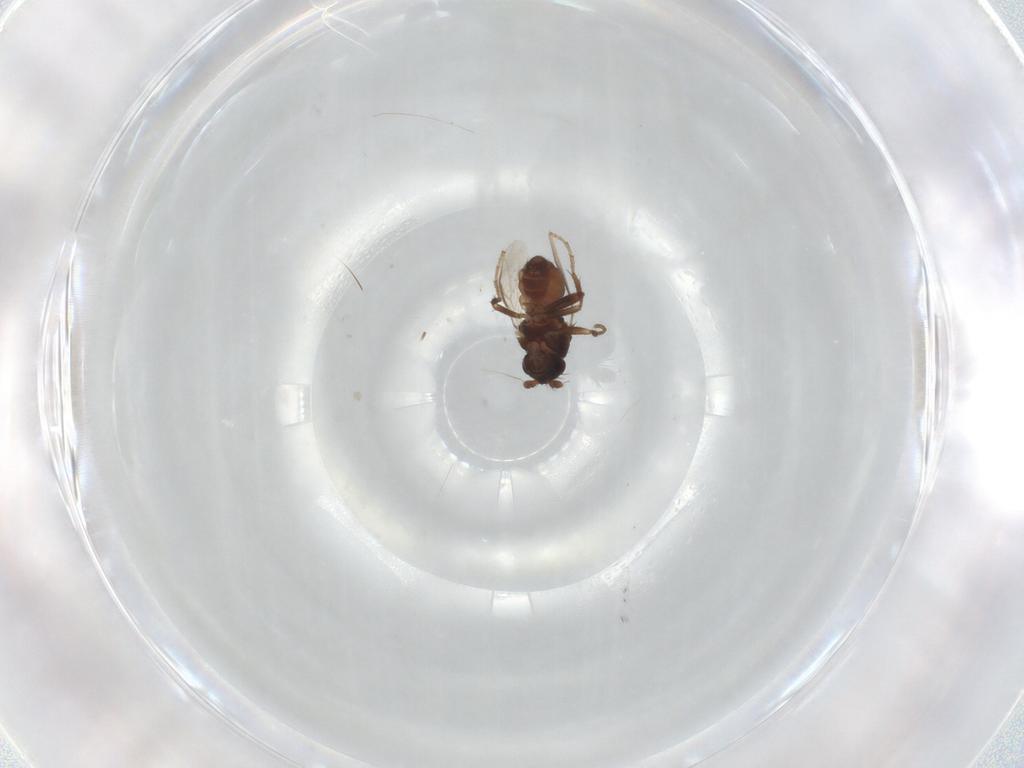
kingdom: Animalia
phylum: Arthropoda
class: Insecta
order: Diptera
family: Sphaeroceridae
